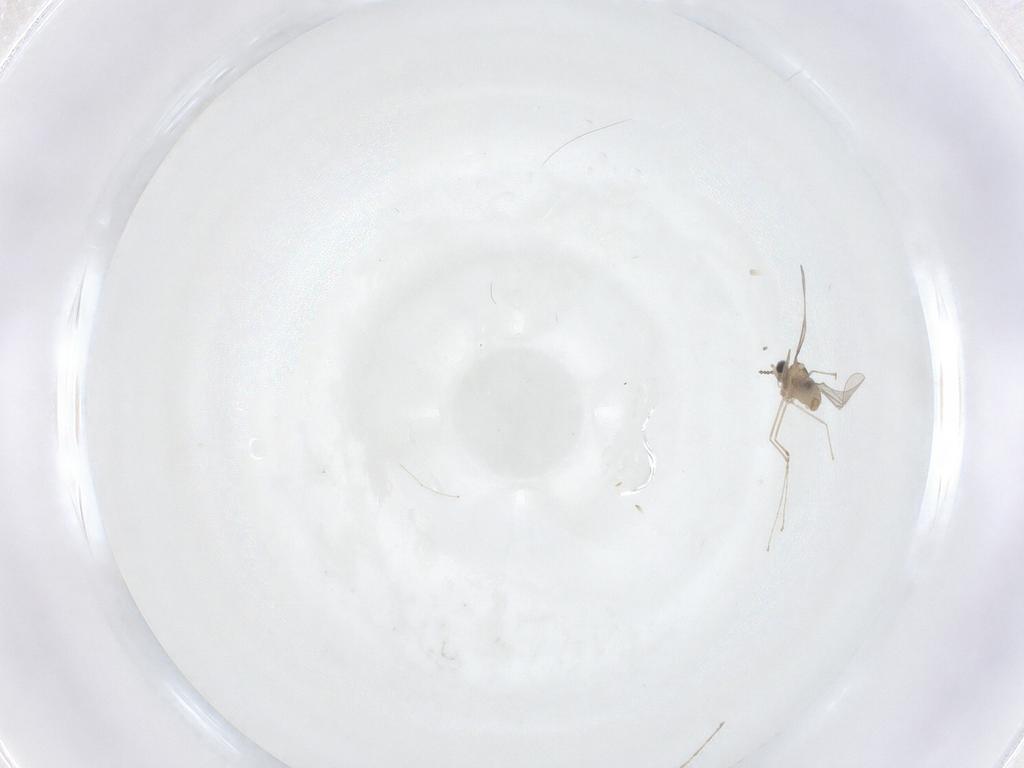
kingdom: Animalia
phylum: Arthropoda
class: Insecta
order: Diptera
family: Cecidomyiidae
